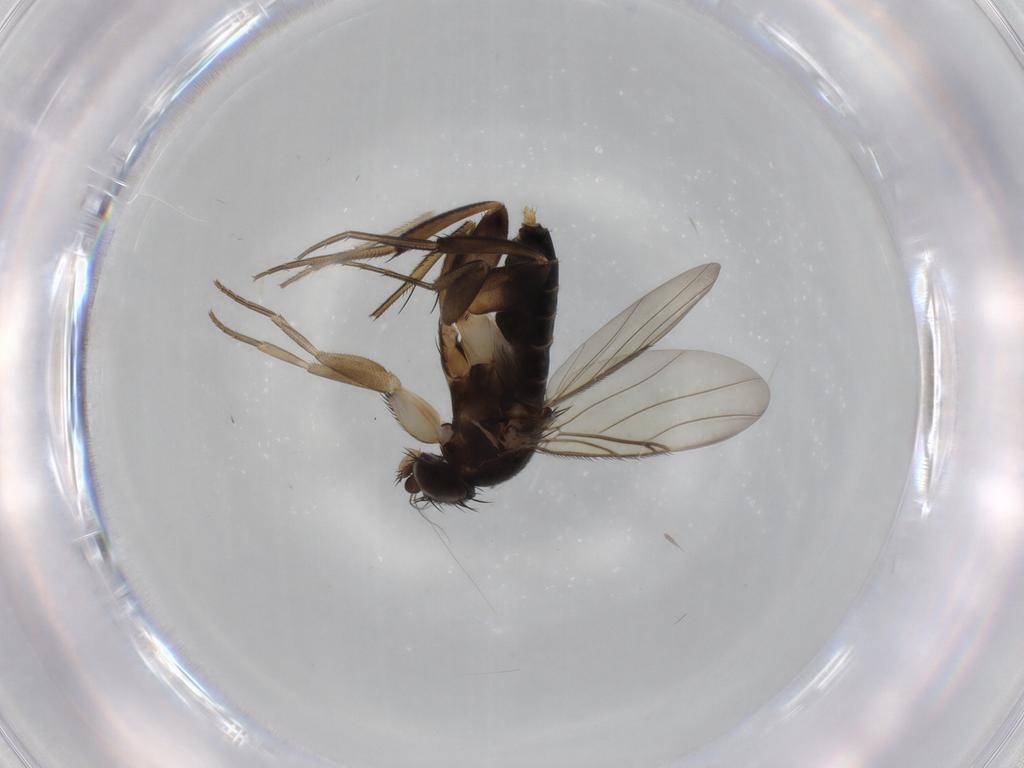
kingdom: Animalia
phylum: Arthropoda
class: Insecta
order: Diptera
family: Phoridae
